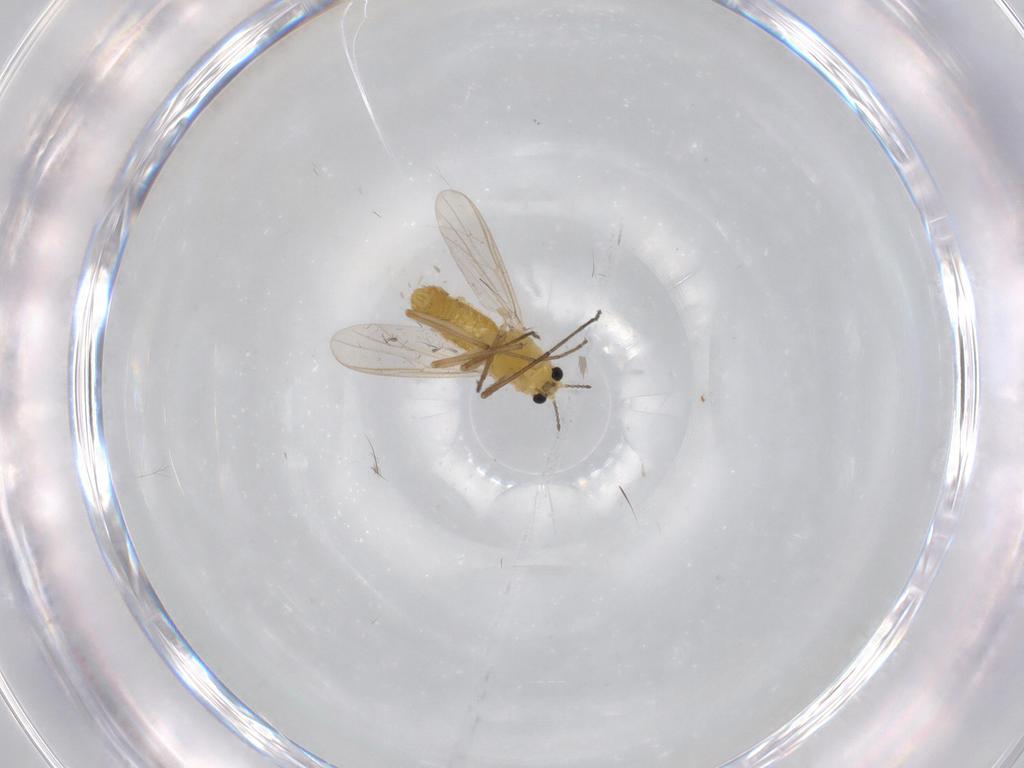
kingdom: Animalia
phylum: Arthropoda
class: Insecta
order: Diptera
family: Chironomidae
